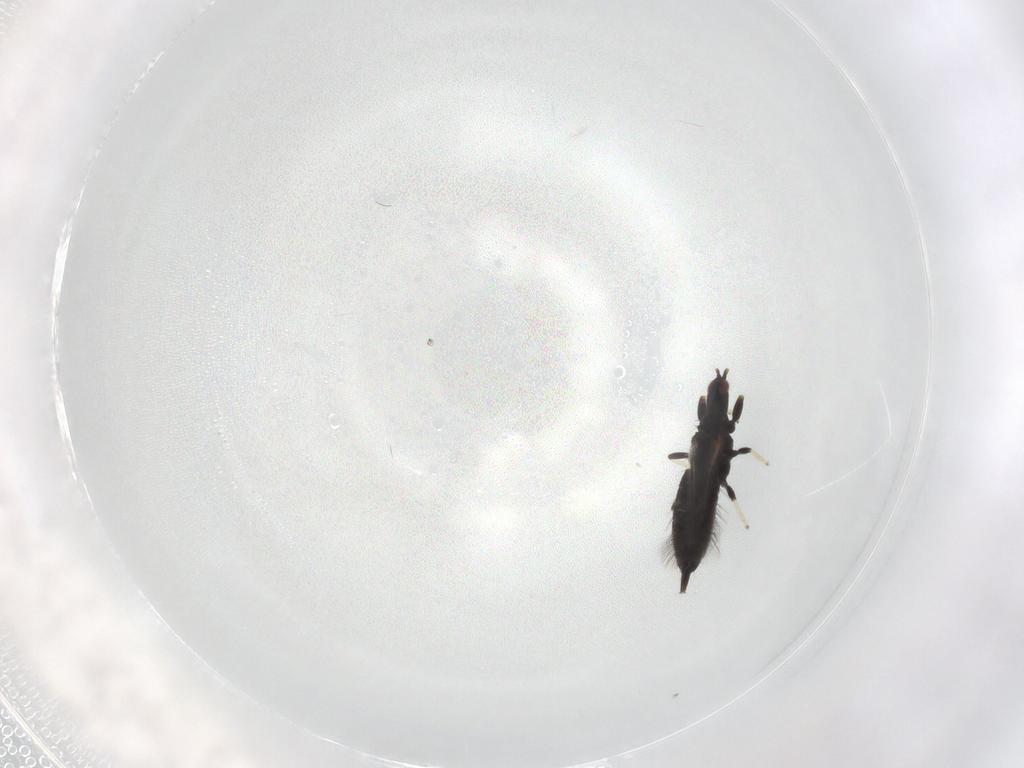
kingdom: Animalia
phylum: Arthropoda
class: Insecta
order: Thysanoptera
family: Phlaeothripidae
